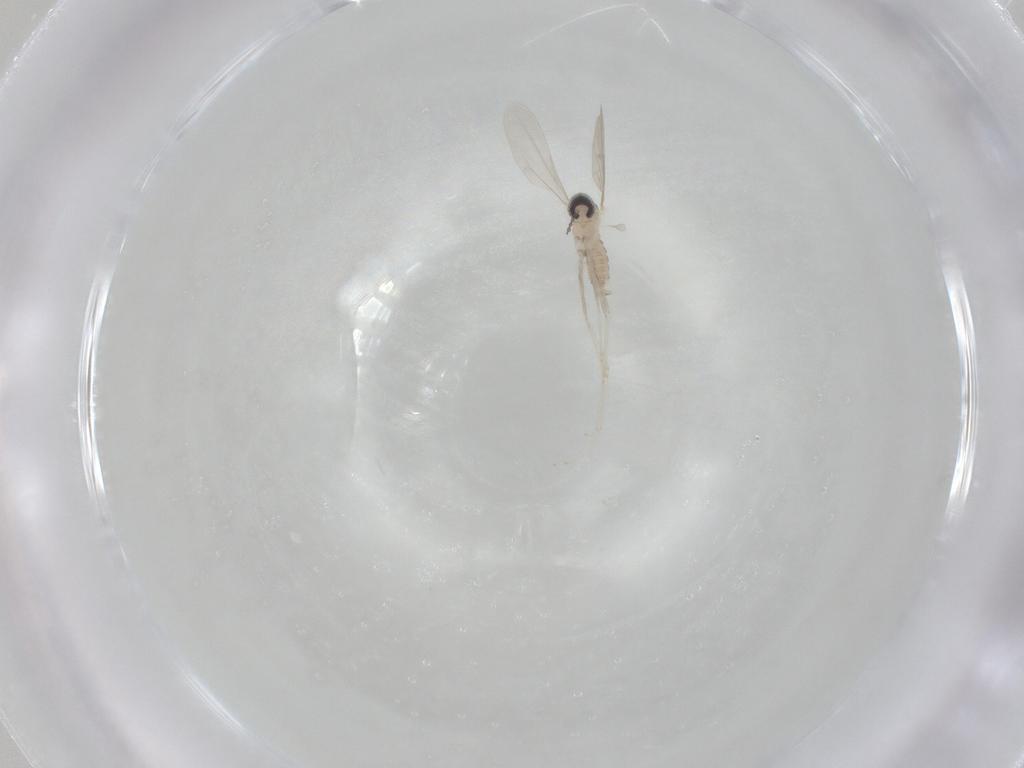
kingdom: Animalia
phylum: Arthropoda
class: Insecta
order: Diptera
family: Cecidomyiidae
